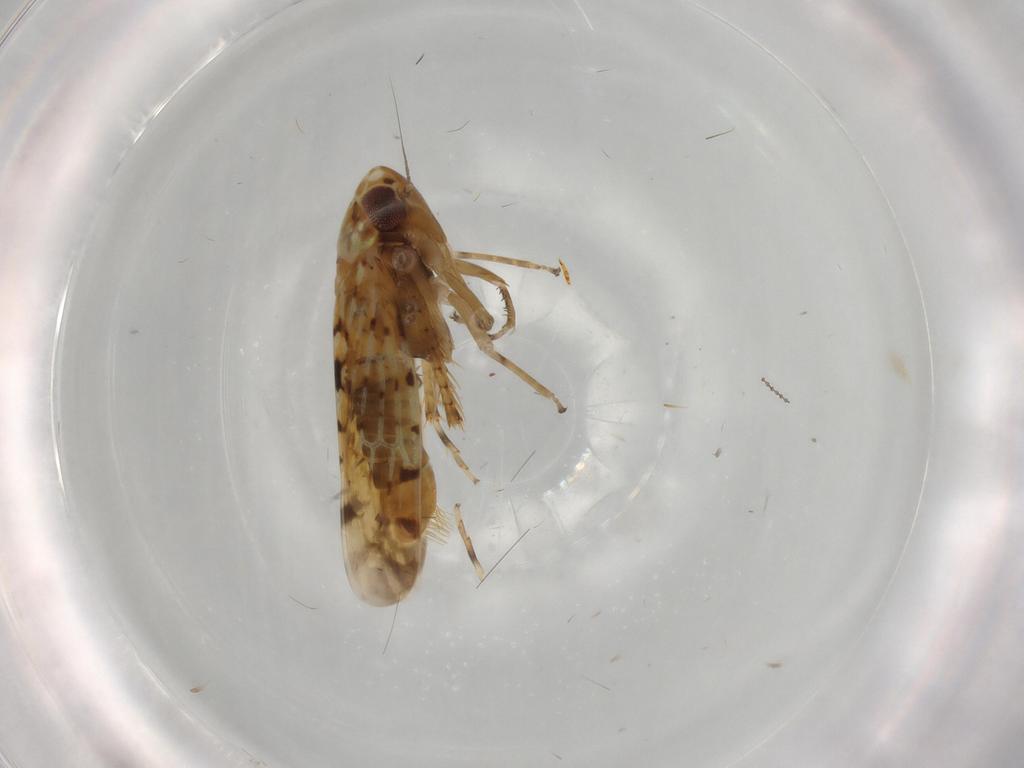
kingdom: Animalia
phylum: Arthropoda
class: Insecta
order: Hemiptera
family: Cicadellidae
